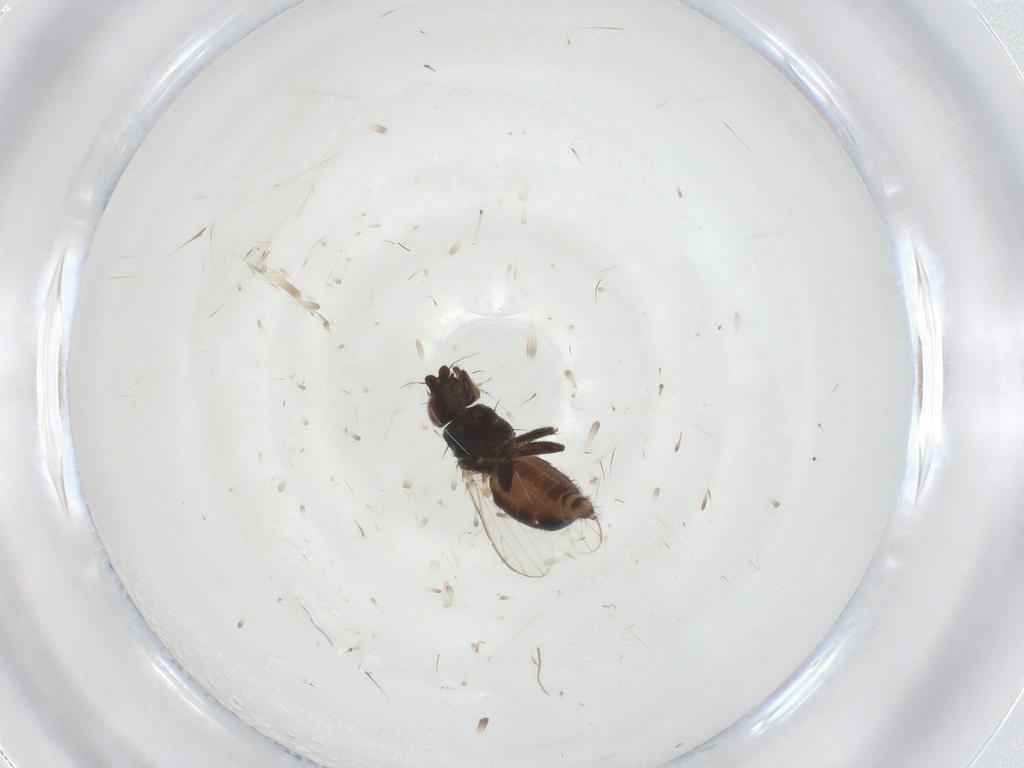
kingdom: Animalia
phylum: Arthropoda
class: Insecta
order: Diptera
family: Milichiidae
